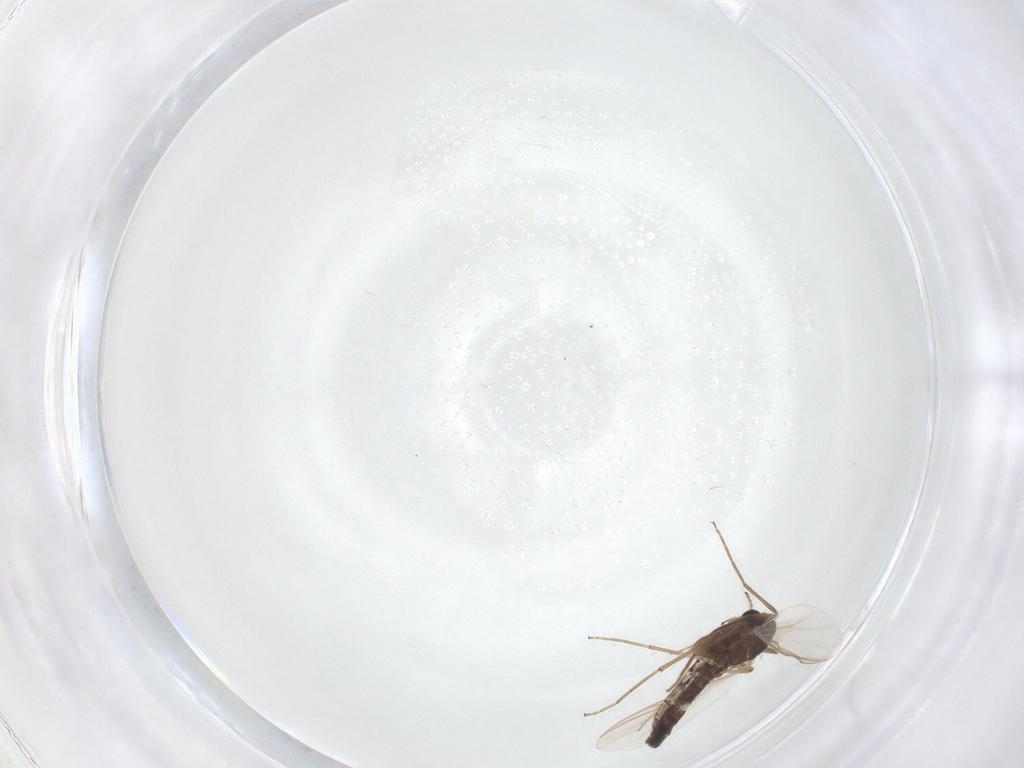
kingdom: Animalia
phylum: Arthropoda
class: Insecta
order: Diptera
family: Chironomidae
